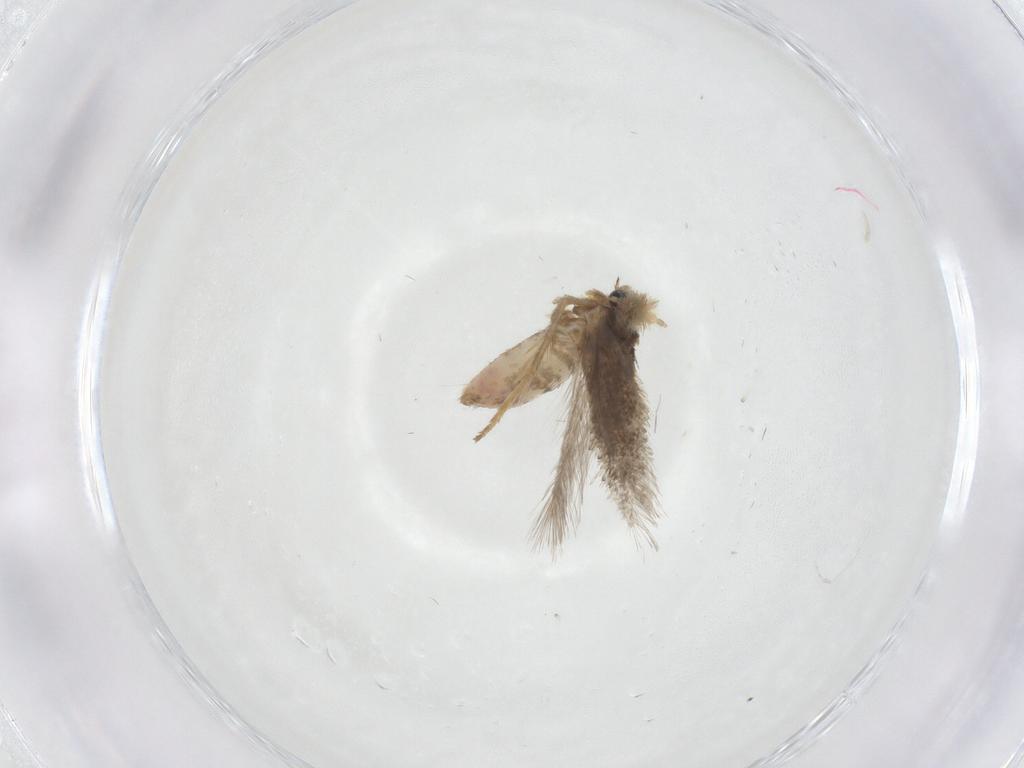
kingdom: Animalia
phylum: Arthropoda
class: Insecta
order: Lepidoptera
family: Nepticulidae
